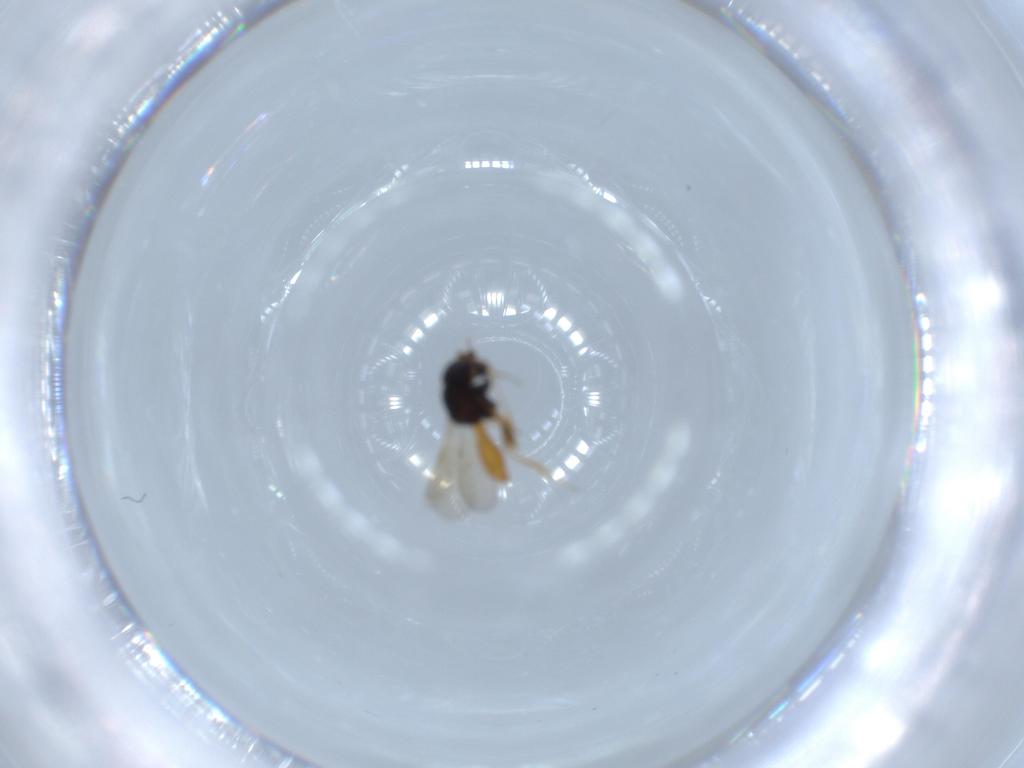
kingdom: Animalia
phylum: Arthropoda
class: Insecta
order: Hymenoptera
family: Scelionidae
